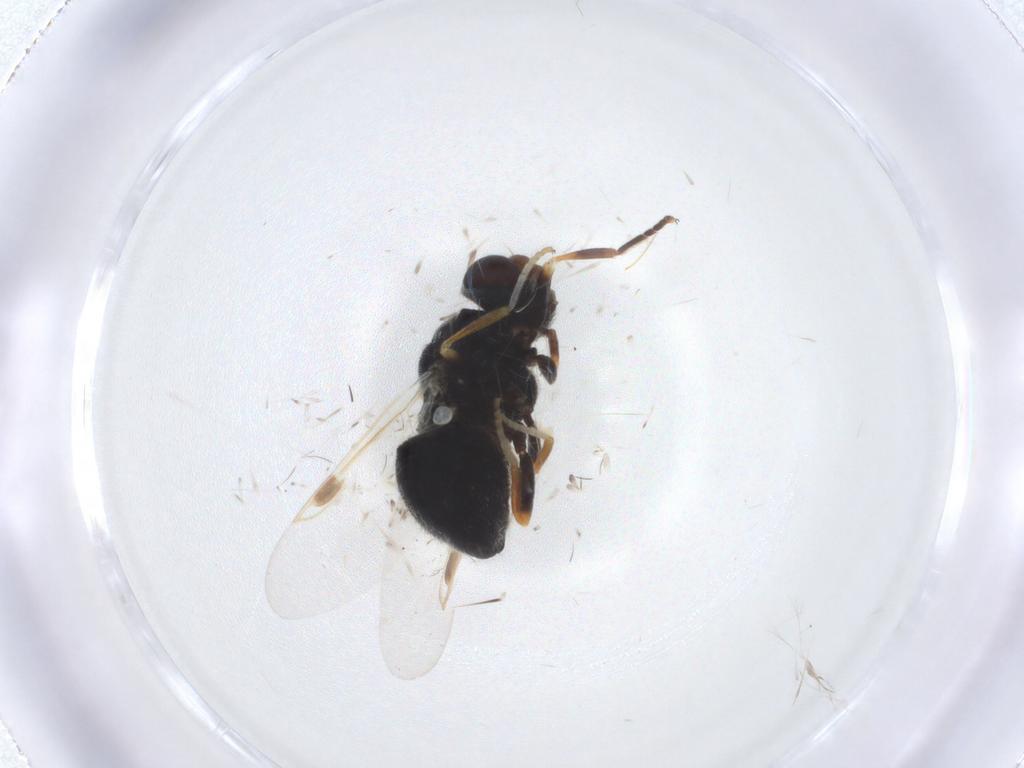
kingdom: Animalia
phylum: Arthropoda
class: Insecta
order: Diptera
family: Stratiomyidae
